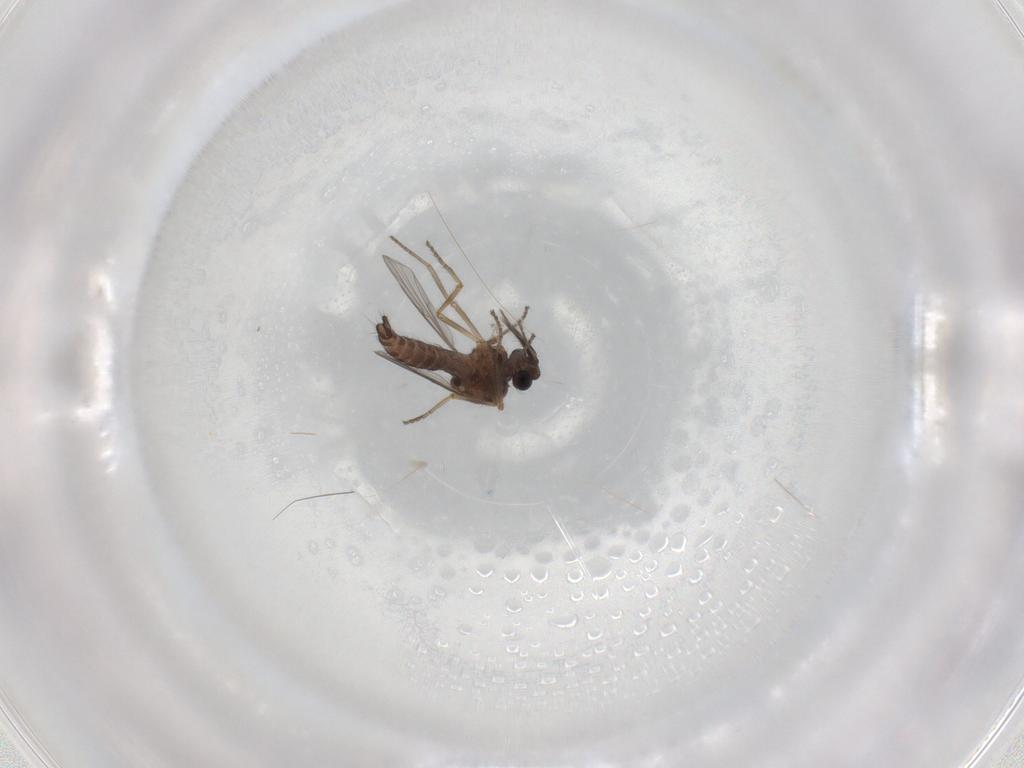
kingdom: Animalia
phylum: Arthropoda
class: Insecta
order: Diptera
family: Ceratopogonidae
